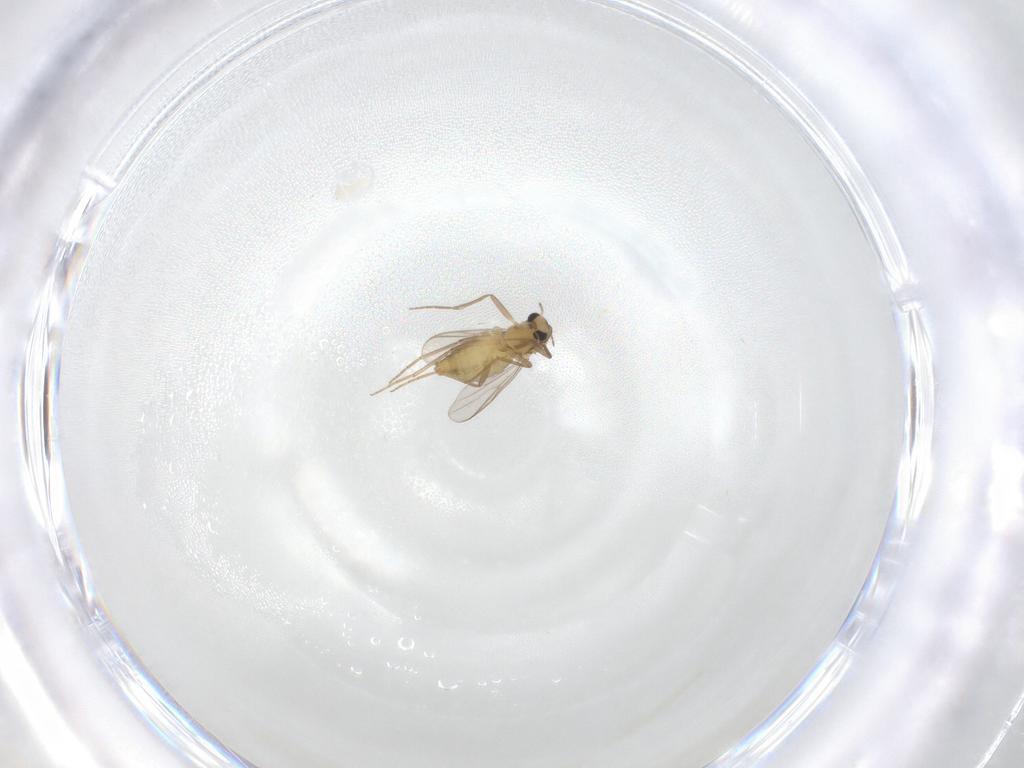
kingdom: Animalia
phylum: Arthropoda
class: Insecta
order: Diptera
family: Chironomidae
